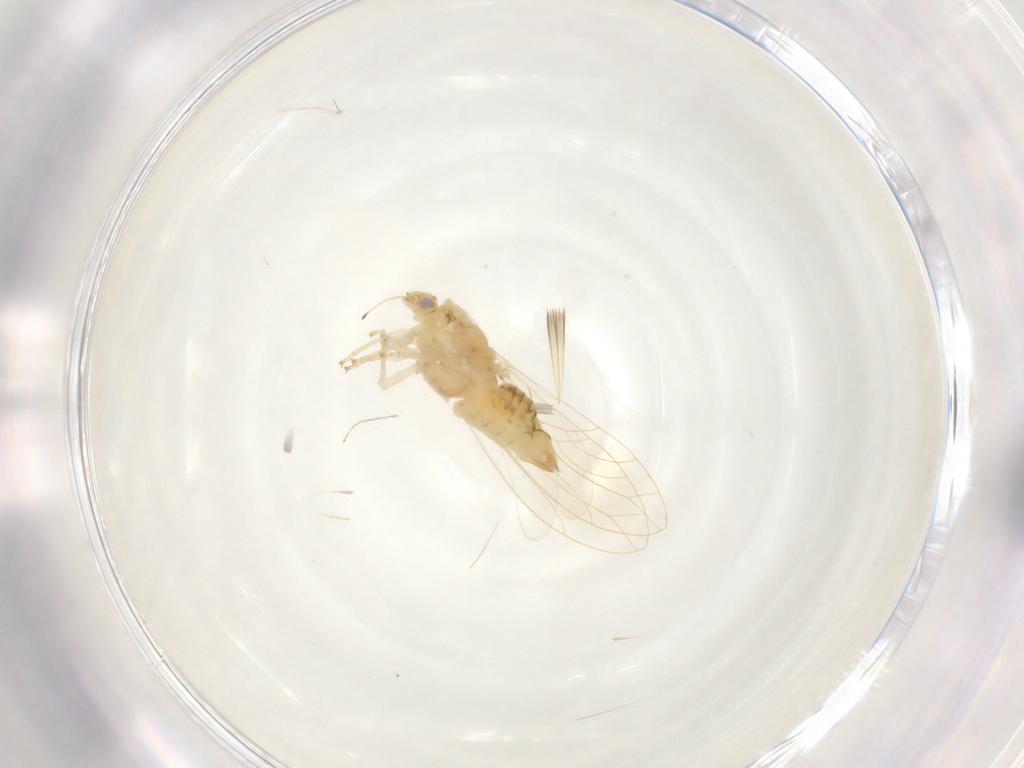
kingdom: Animalia
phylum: Arthropoda
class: Insecta
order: Hemiptera
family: Triozidae
